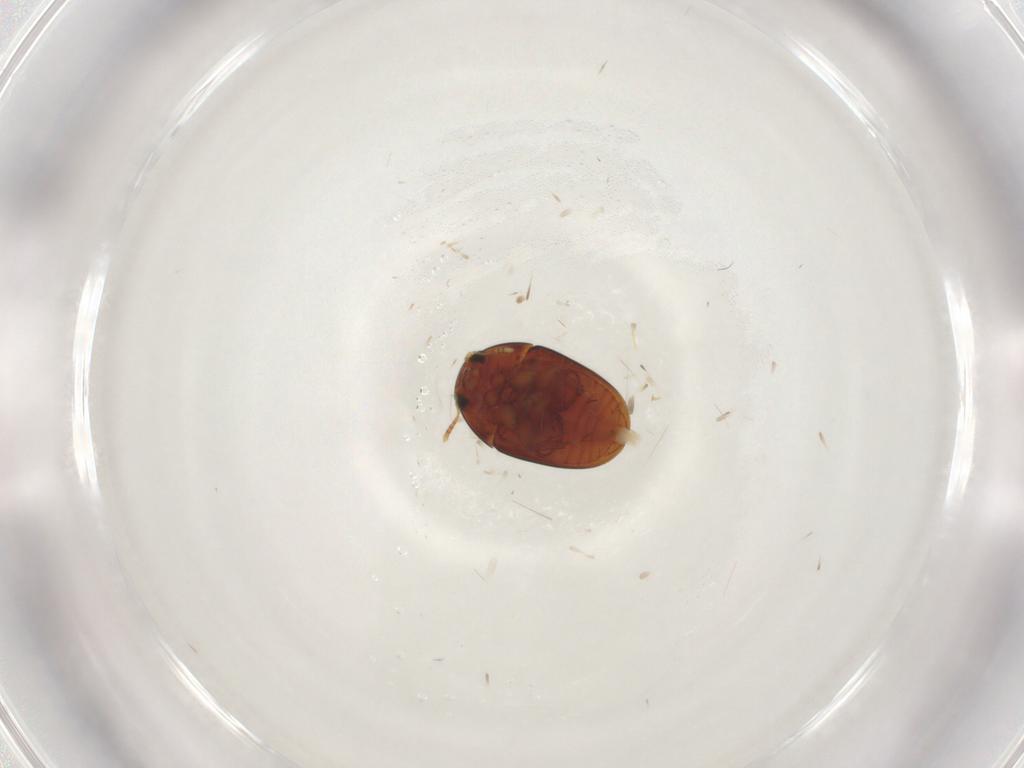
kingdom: Animalia
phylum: Arthropoda
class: Insecta
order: Coleoptera
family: Phalacridae
